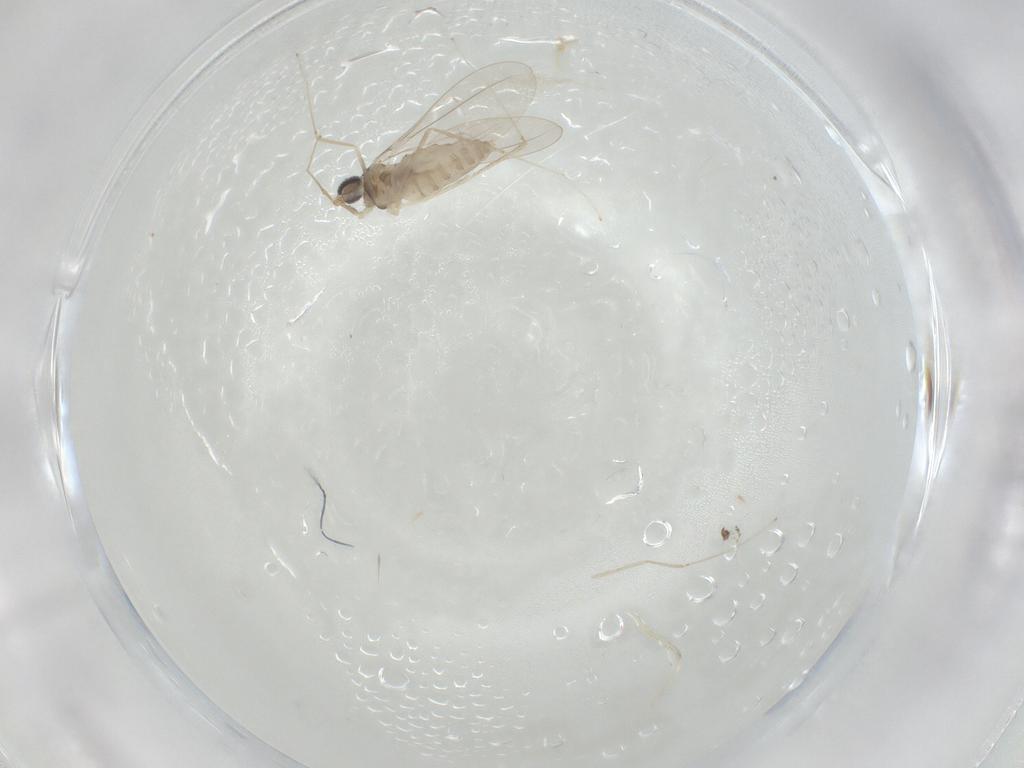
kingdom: Animalia
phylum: Arthropoda
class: Insecta
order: Diptera
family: Cecidomyiidae
